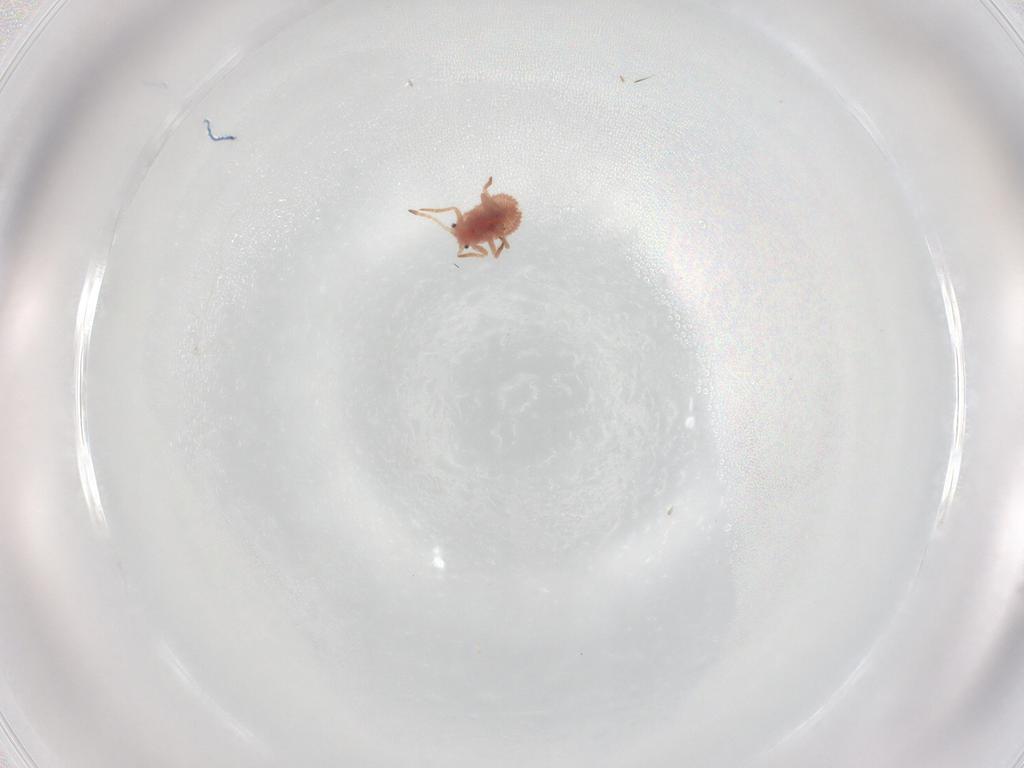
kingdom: Animalia
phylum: Arthropoda
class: Insecta
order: Hemiptera
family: Coccoidea_incertae_sedis
